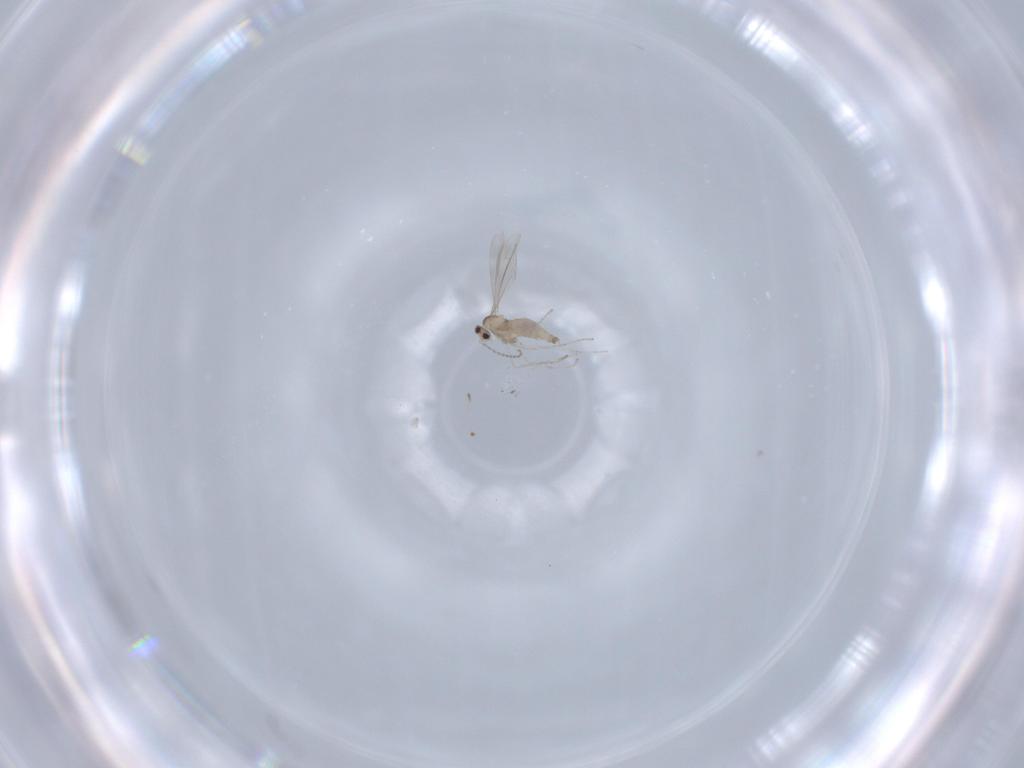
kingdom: Animalia
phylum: Arthropoda
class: Insecta
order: Diptera
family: Cecidomyiidae
